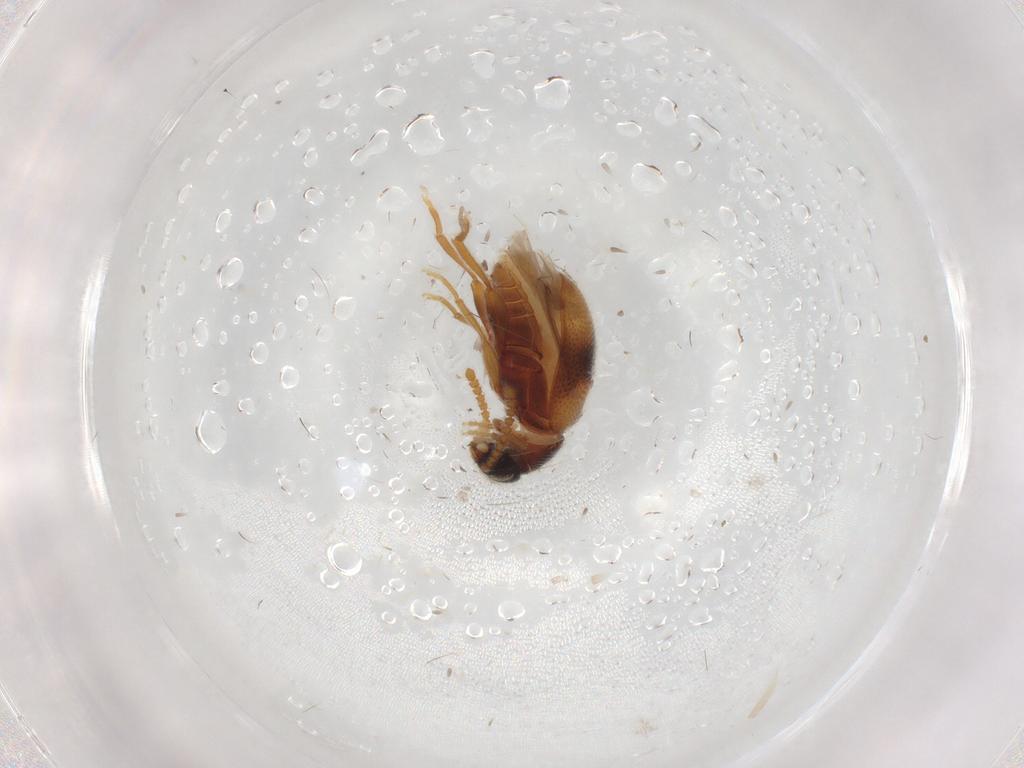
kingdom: Animalia
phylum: Arthropoda
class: Insecta
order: Coleoptera
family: Aderidae
